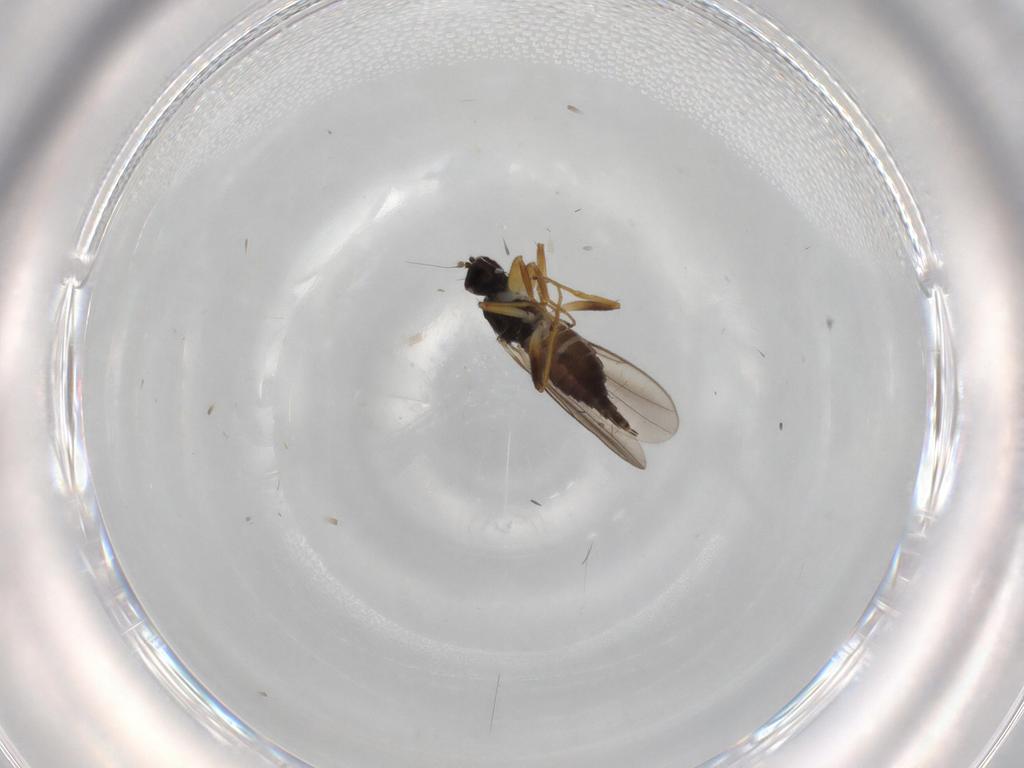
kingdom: Animalia
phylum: Arthropoda
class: Insecta
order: Diptera
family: Hybotidae
